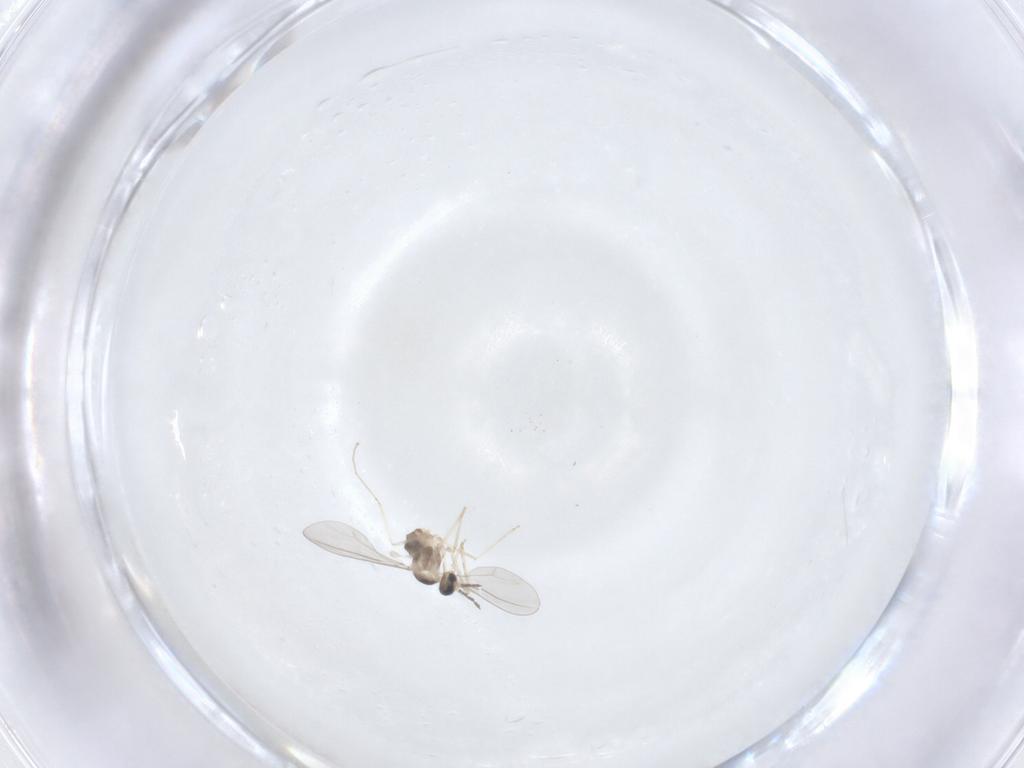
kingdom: Animalia
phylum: Arthropoda
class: Insecta
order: Diptera
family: Cecidomyiidae
